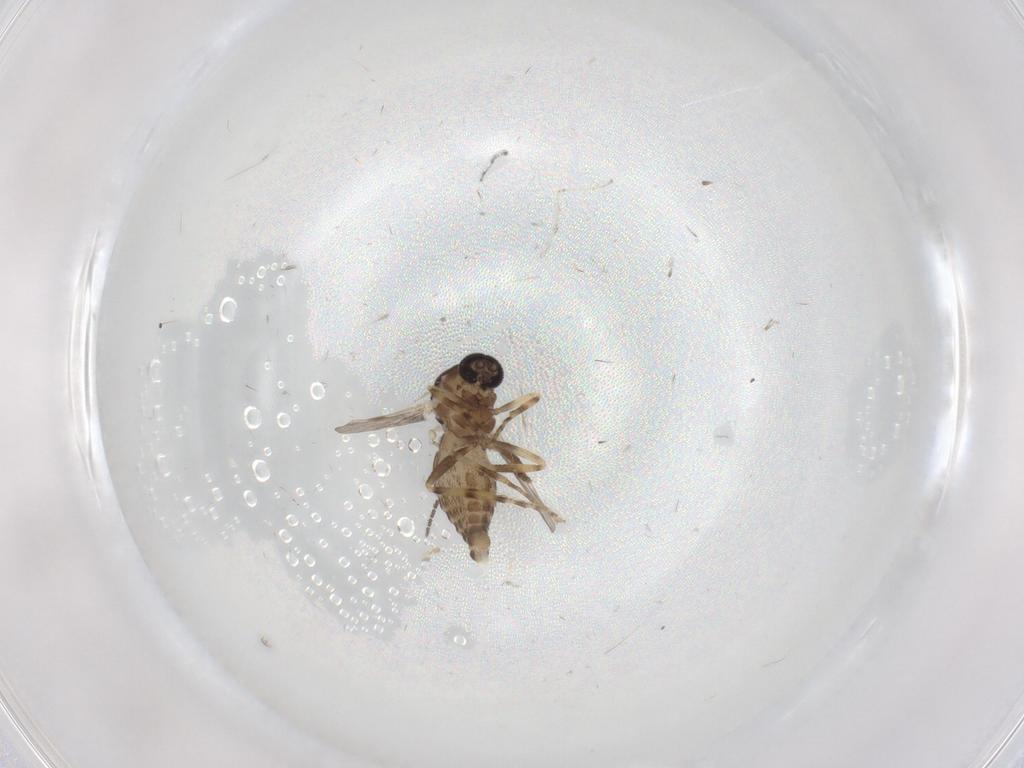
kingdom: Animalia
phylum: Arthropoda
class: Insecta
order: Diptera
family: Ceratopogonidae
